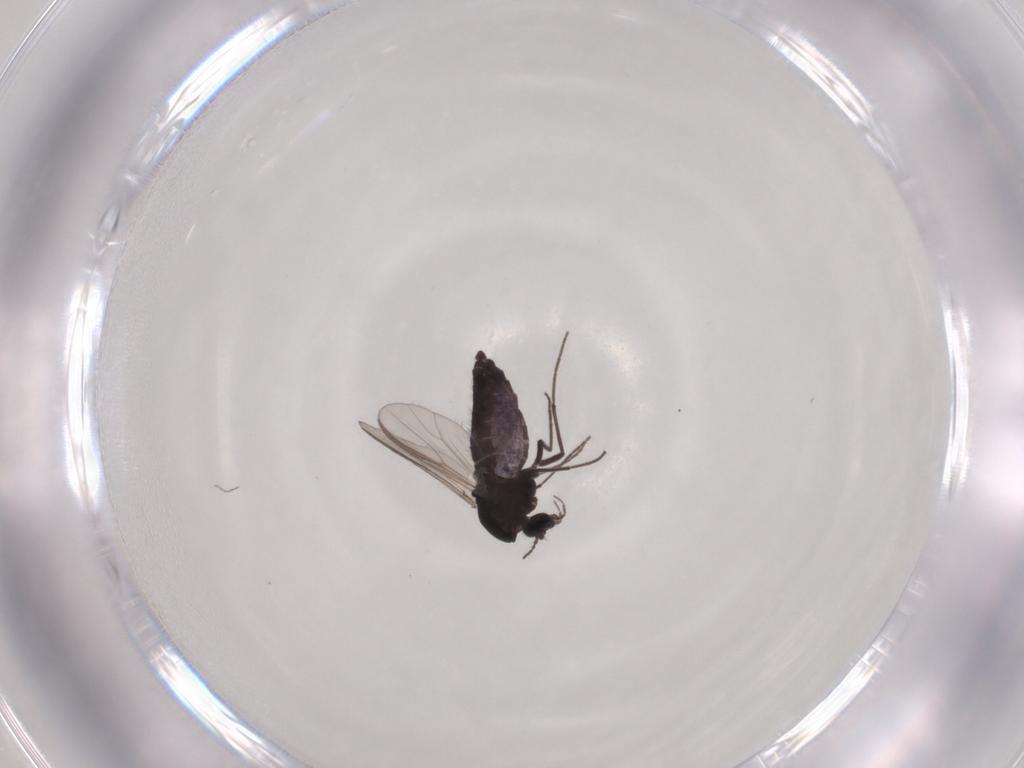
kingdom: Animalia
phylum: Arthropoda
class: Insecta
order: Diptera
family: Chironomidae
